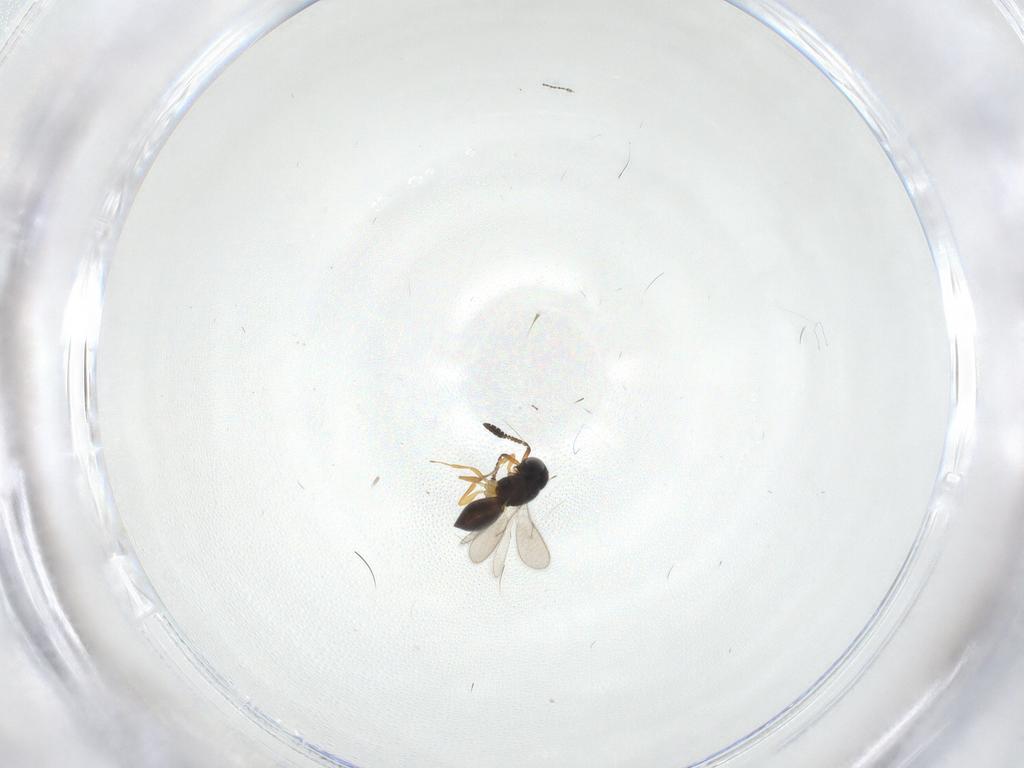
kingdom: Animalia
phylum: Arthropoda
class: Insecta
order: Hymenoptera
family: Scelionidae
